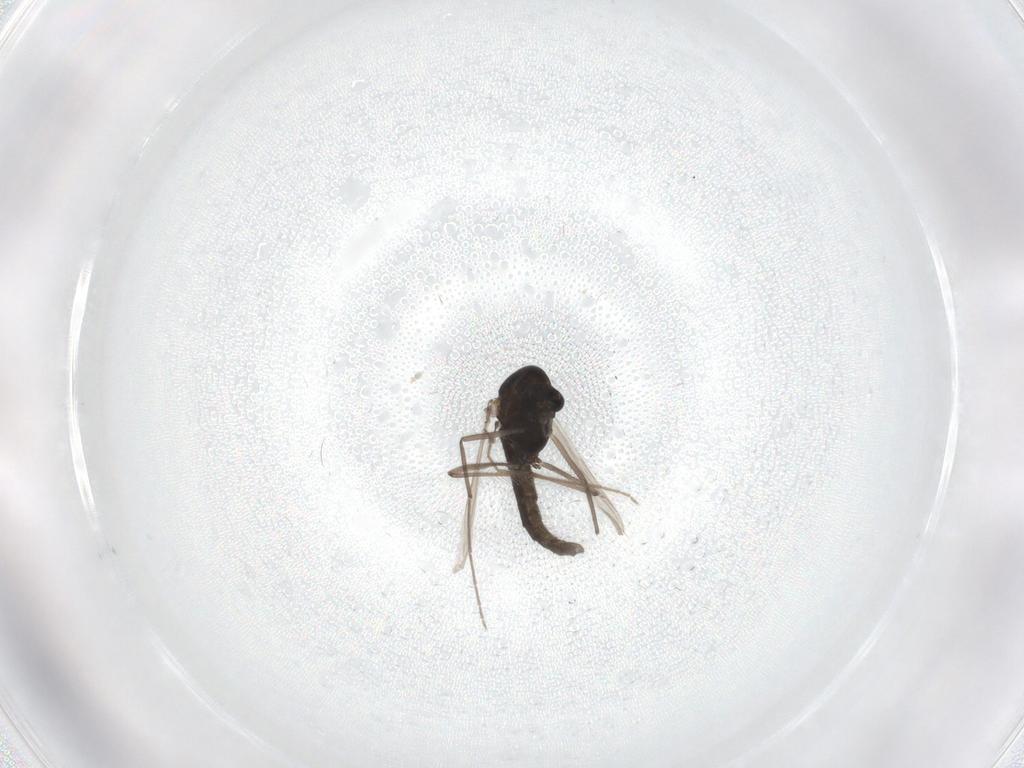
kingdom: Animalia
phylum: Arthropoda
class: Insecta
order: Diptera
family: Chironomidae
